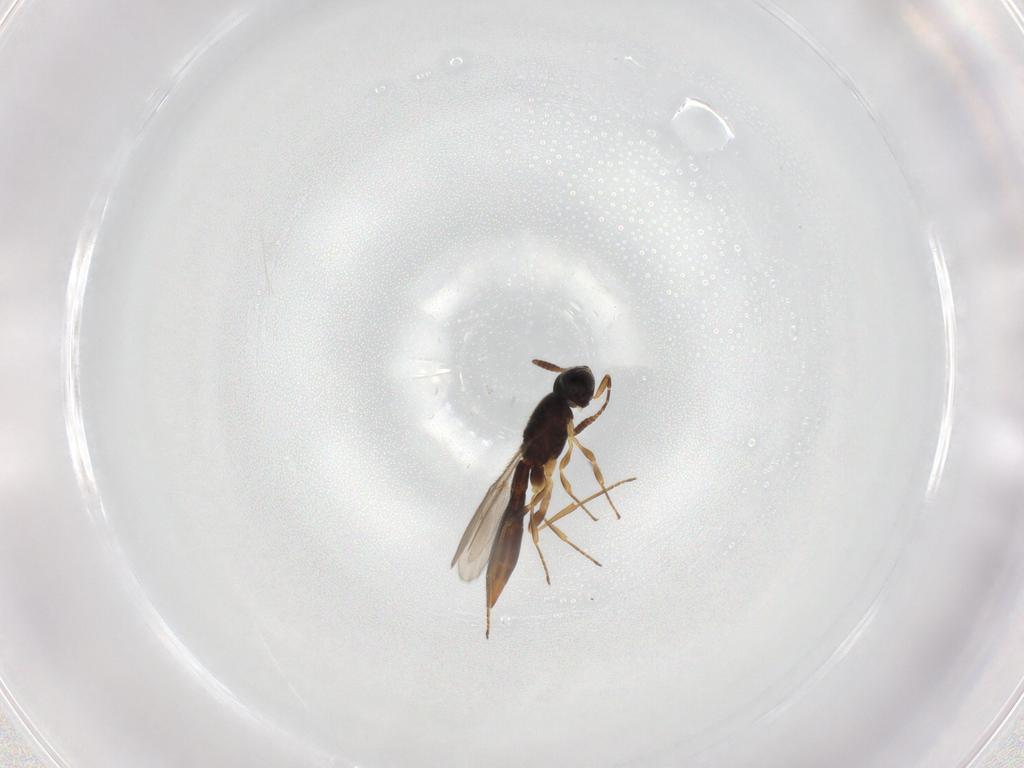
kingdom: Animalia
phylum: Arthropoda
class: Insecta
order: Hymenoptera
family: Scelionidae
